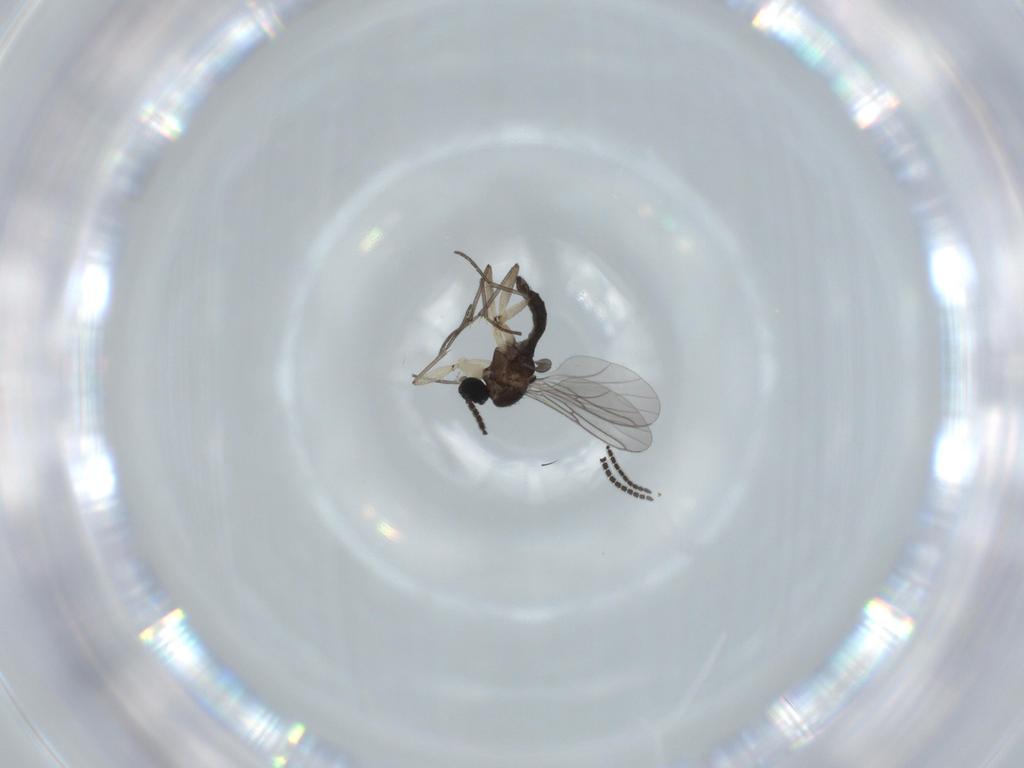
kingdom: Animalia
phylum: Arthropoda
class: Insecta
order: Diptera
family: Sciaridae
